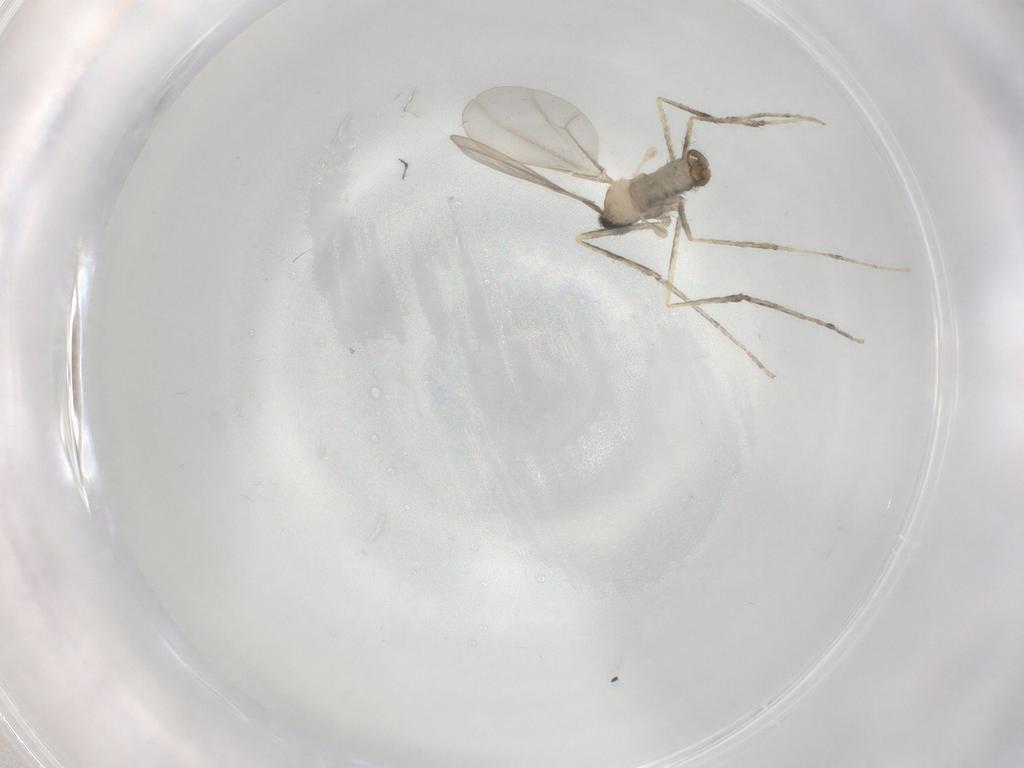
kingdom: Animalia
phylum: Arthropoda
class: Insecta
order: Diptera
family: Cecidomyiidae
